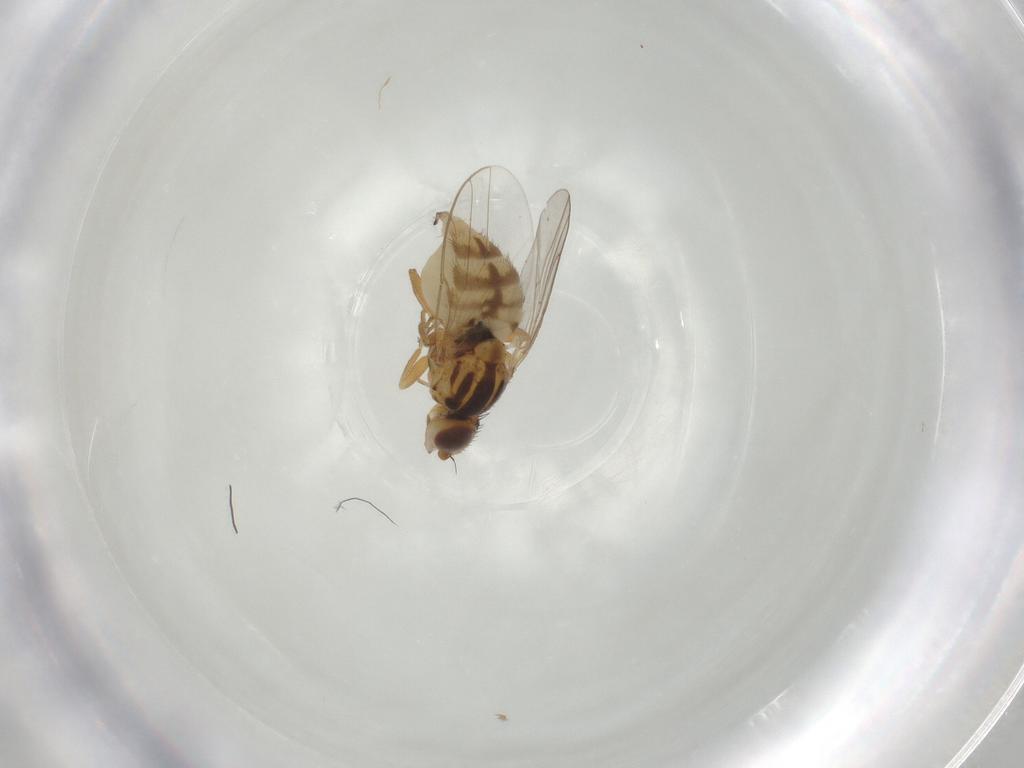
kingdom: Animalia
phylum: Arthropoda
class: Insecta
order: Diptera
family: Chloropidae
